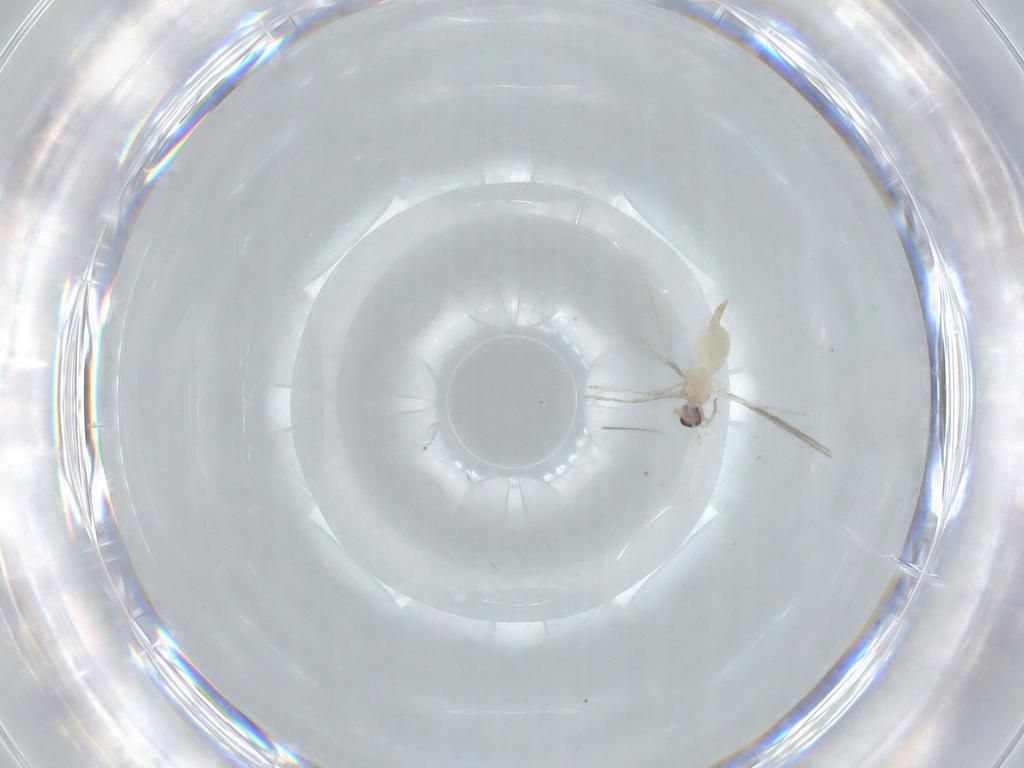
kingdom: Animalia
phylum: Arthropoda
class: Insecta
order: Diptera
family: Cecidomyiidae
